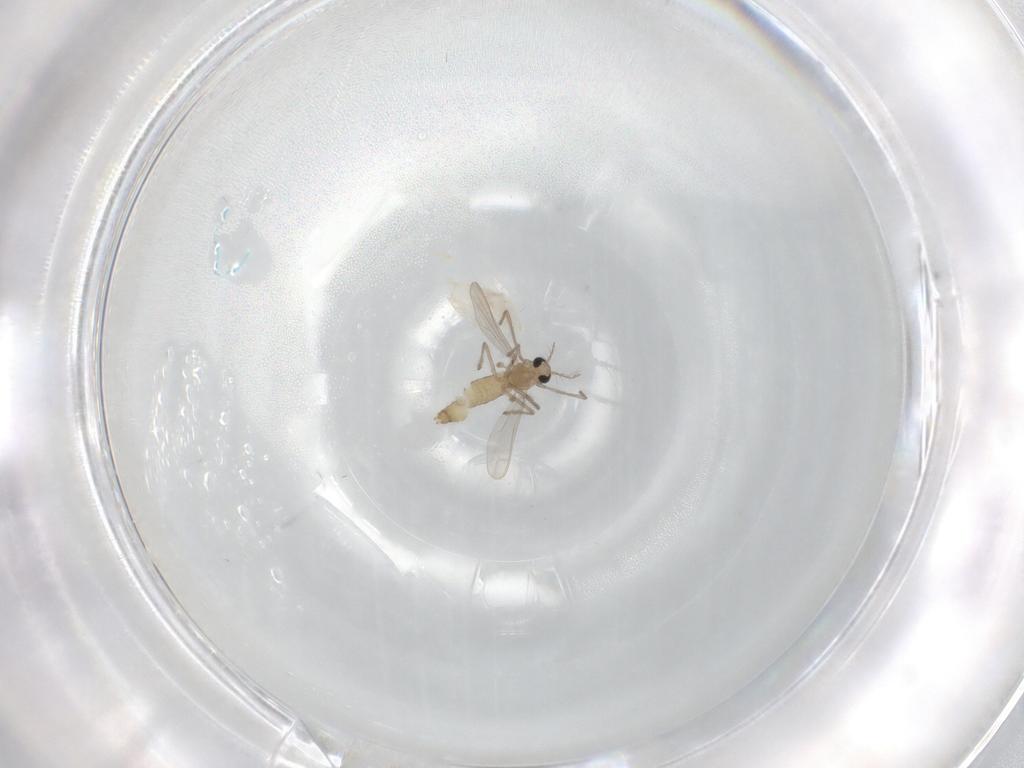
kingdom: Animalia
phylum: Arthropoda
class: Insecta
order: Diptera
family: Chironomidae
